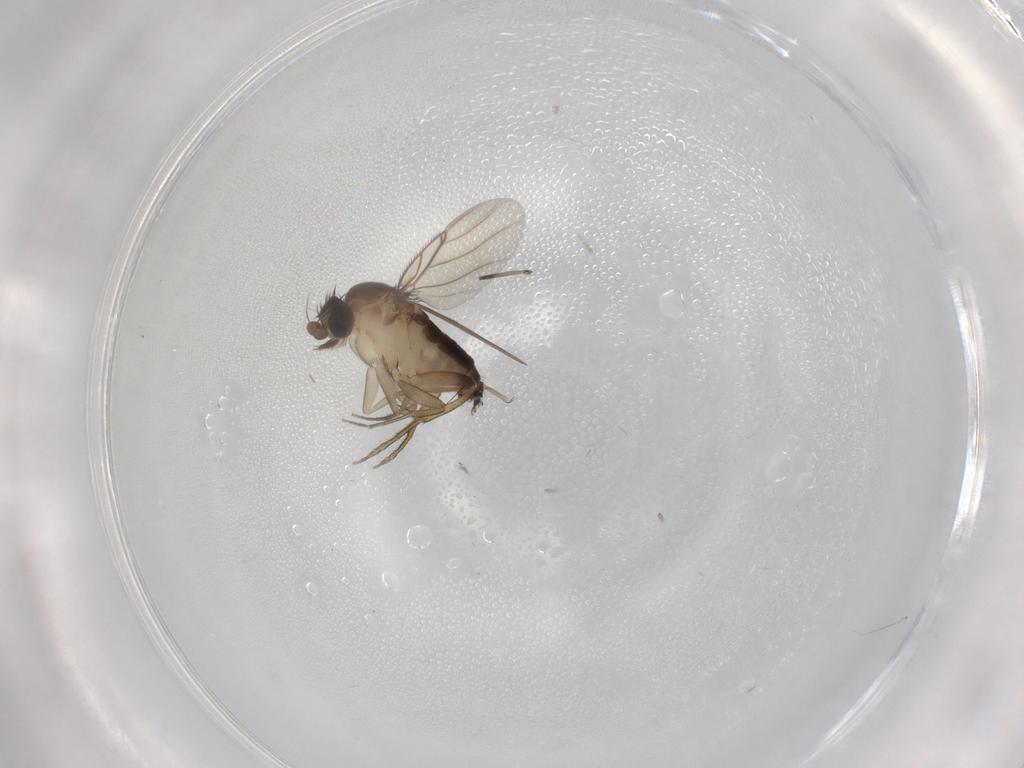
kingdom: Animalia
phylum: Arthropoda
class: Insecta
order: Diptera
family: Phoridae
